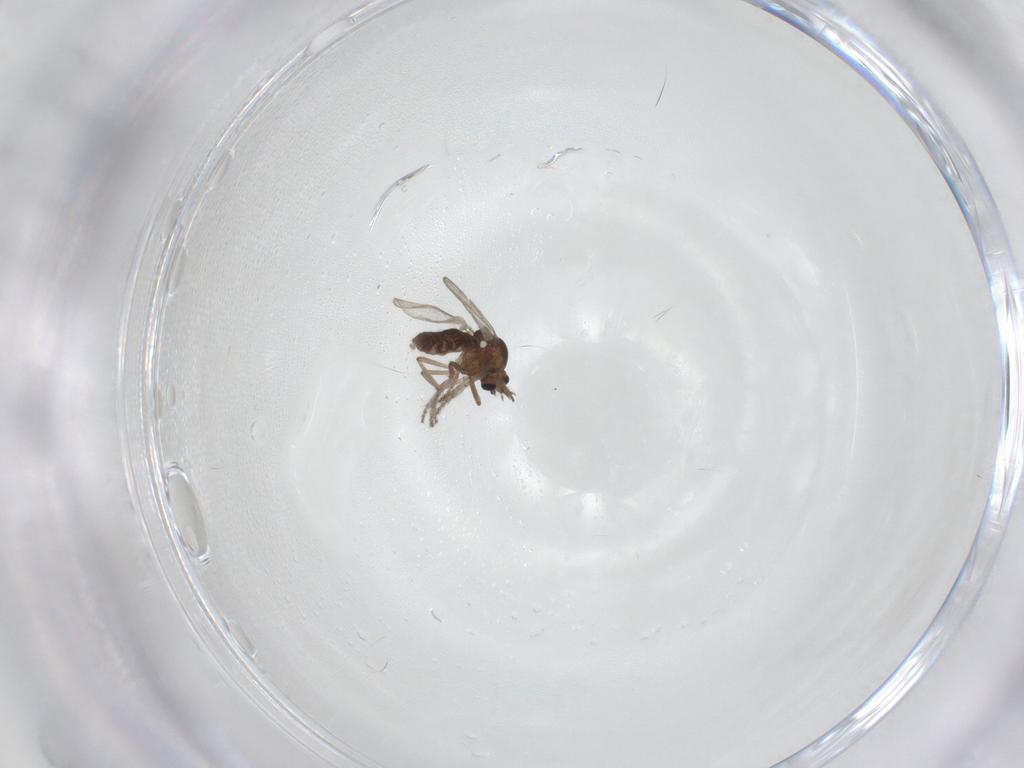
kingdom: Animalia
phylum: Arthropoda
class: Insecta
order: Diptera
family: Ceratopogonidae
